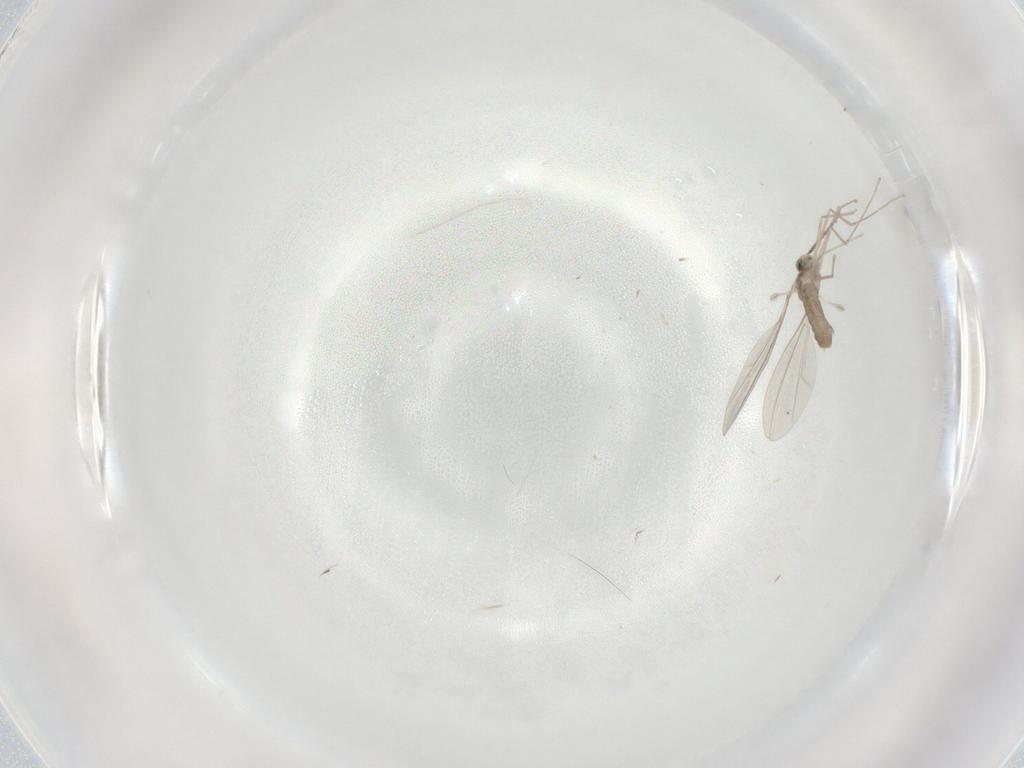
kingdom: Animalia
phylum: Arthropoda
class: Insecta
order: Diptera
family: Cecidomyiidae
